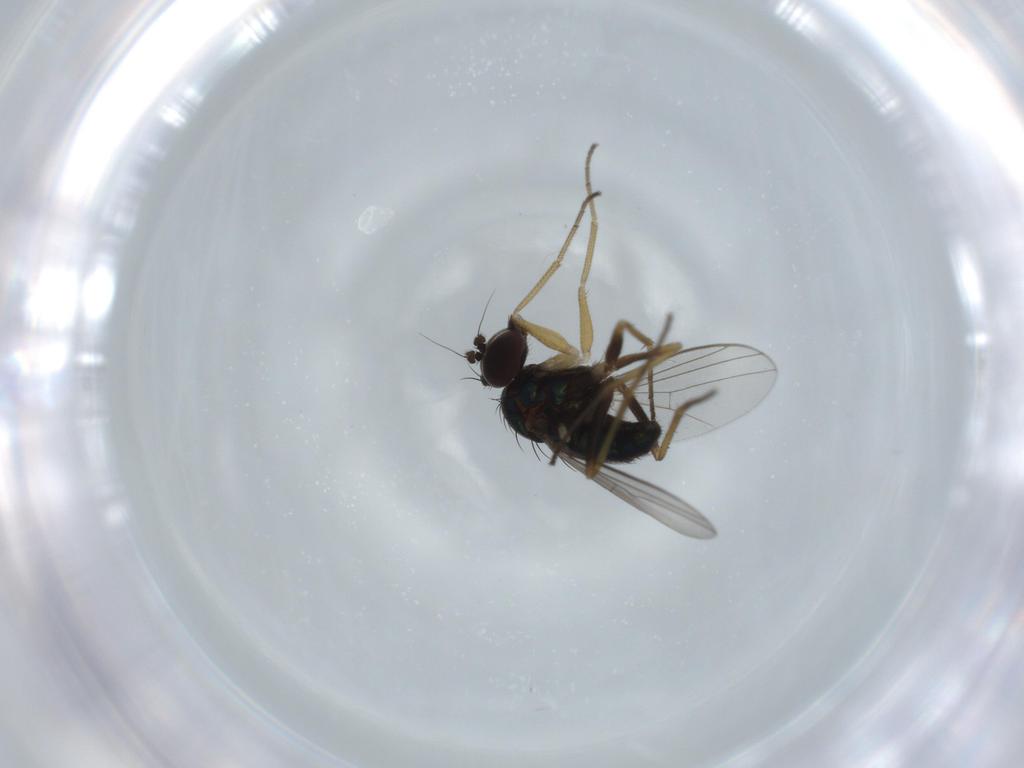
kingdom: Animalia
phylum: Arthropoda
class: Insecta
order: Diptera
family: Dolichopodidae
